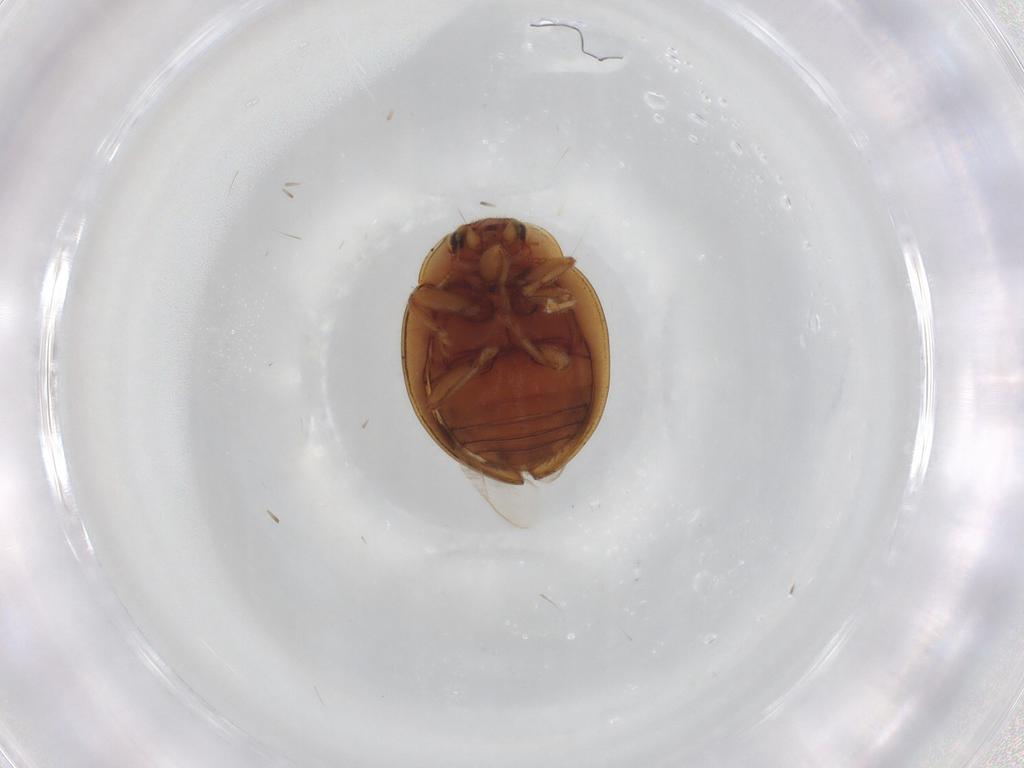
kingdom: Animalia
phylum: Arthropoda
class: Insecta
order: Coleoptera
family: Coccinellidae
